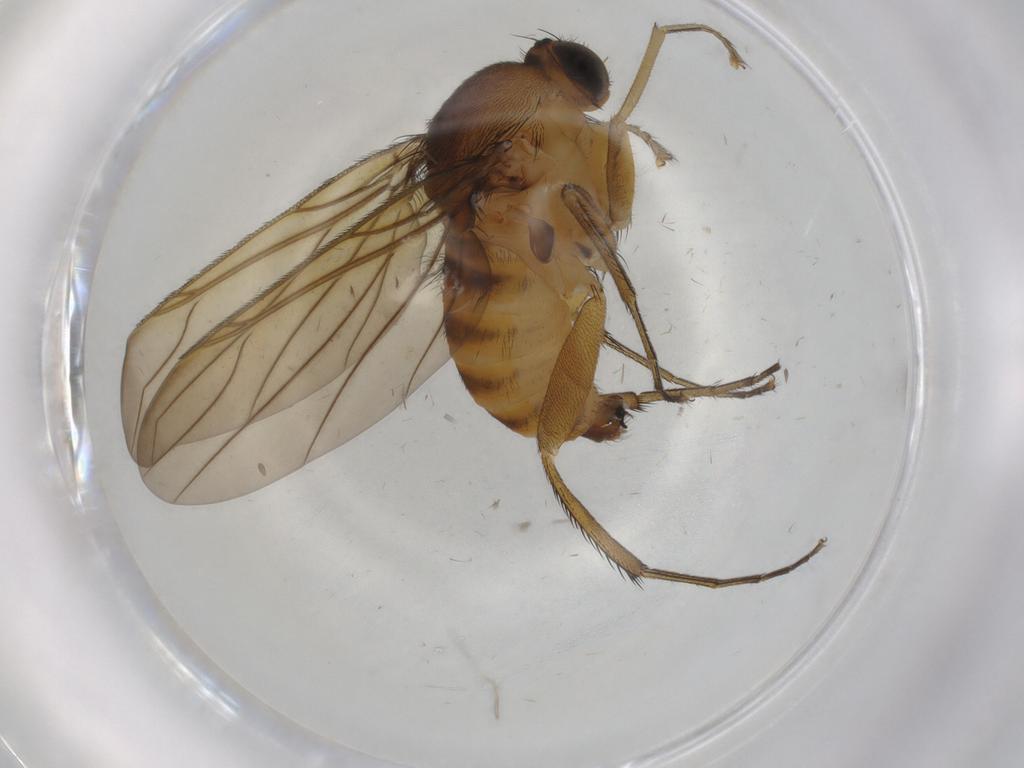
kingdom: Animalia
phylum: Arthropoda
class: Insecta
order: Diptera
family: Phoridae
